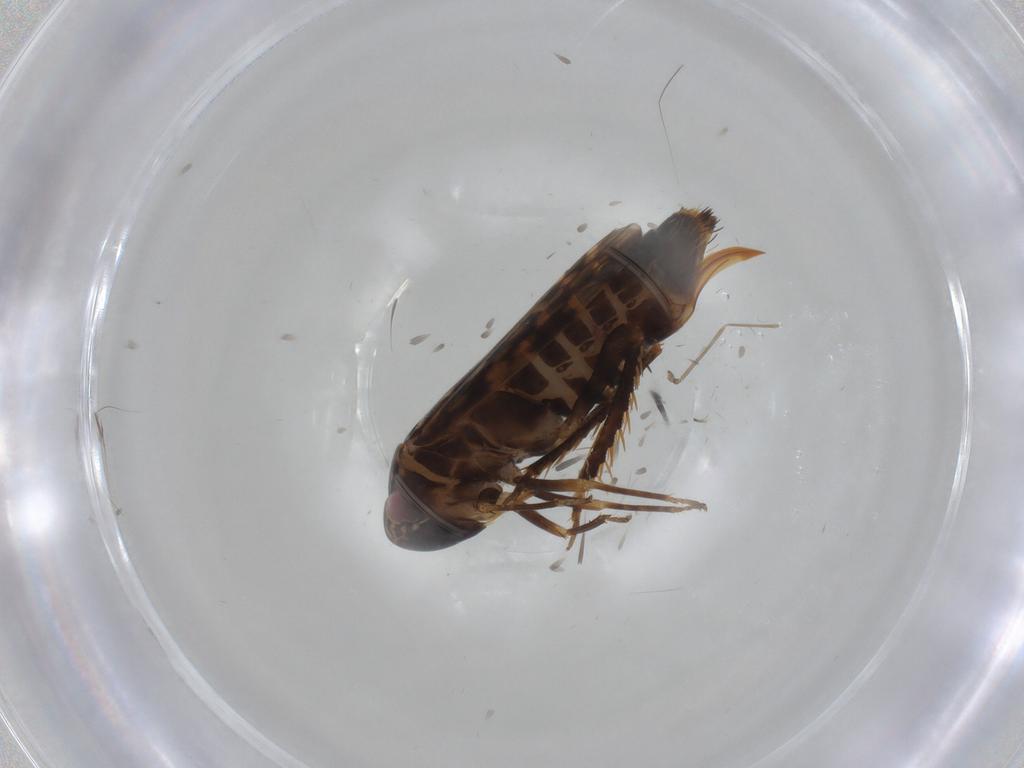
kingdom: Animalia
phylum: Arthropoda
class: Insecta
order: Hemiptera
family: Cicadellidae
